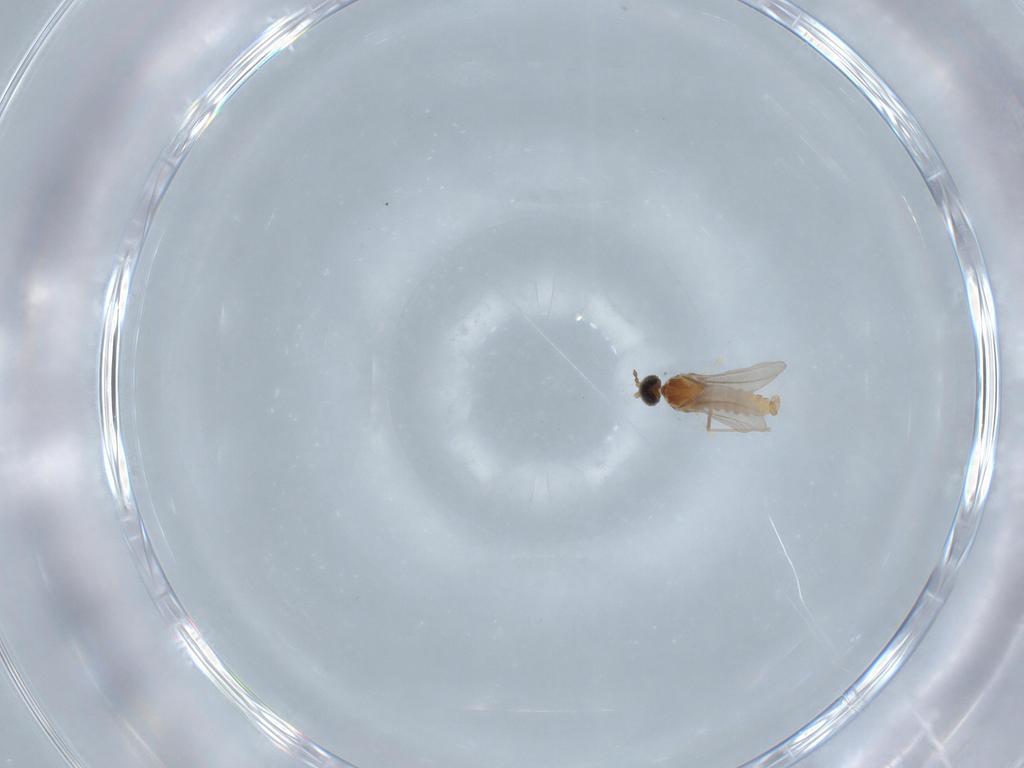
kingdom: Animalia
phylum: Arthropoda
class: Insecta
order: Diptera
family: Cecidomyiidae
